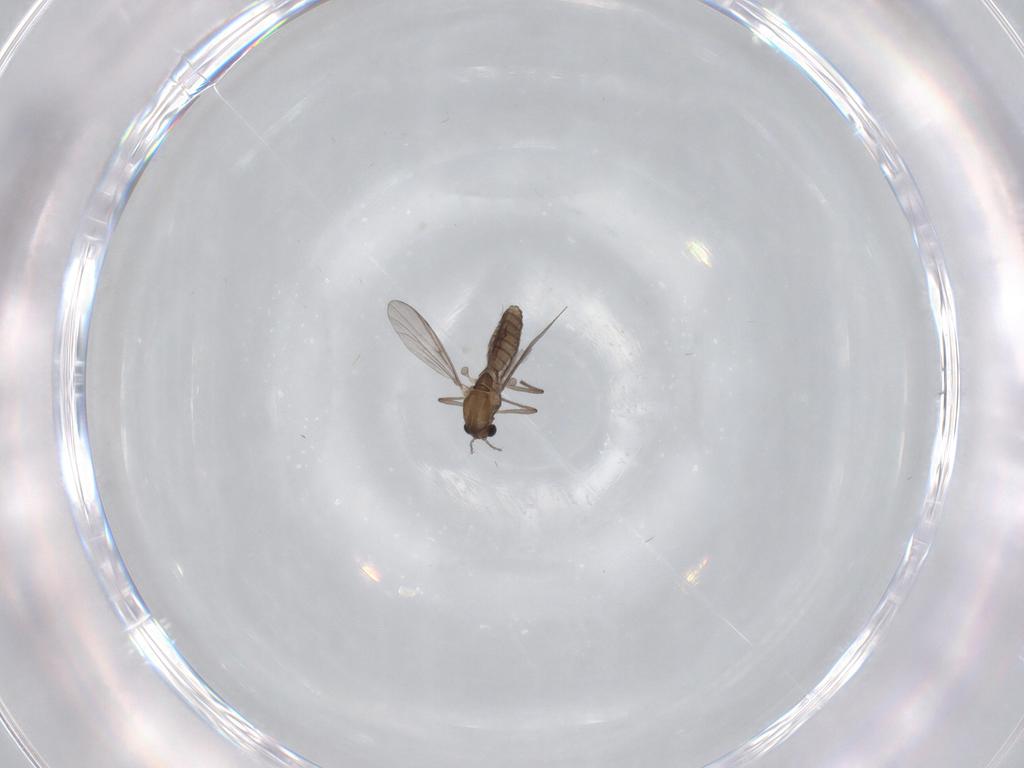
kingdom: Animalia
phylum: Arthropoda
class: Insecta
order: Diptera
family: Chironomidae
